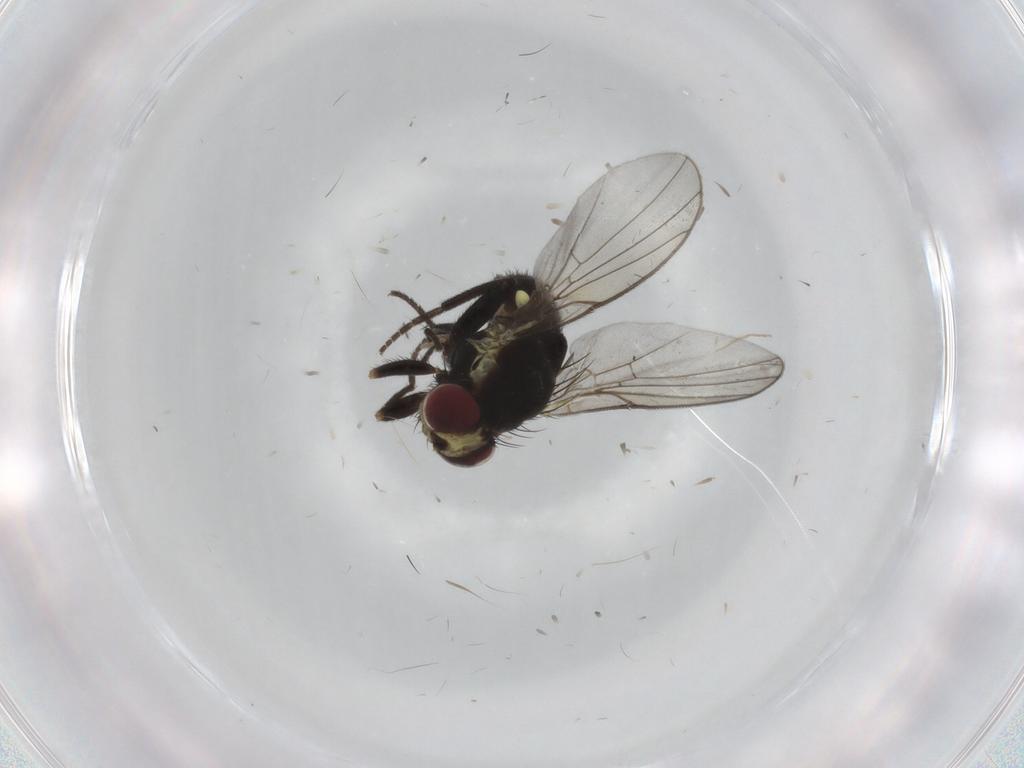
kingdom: Animalia
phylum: Arthropoda
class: Insecta
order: Diptera
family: Agromyzidae
